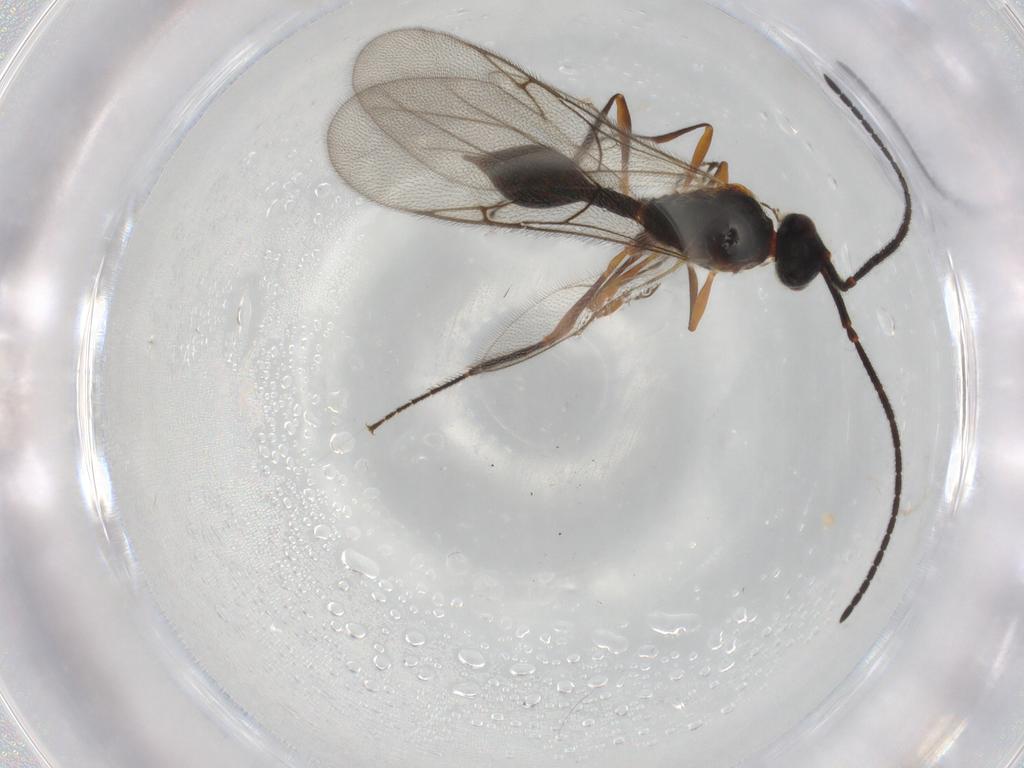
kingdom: Animalia
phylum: Arthropoda
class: Insecta
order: Hymenoptera
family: Diapriidae
